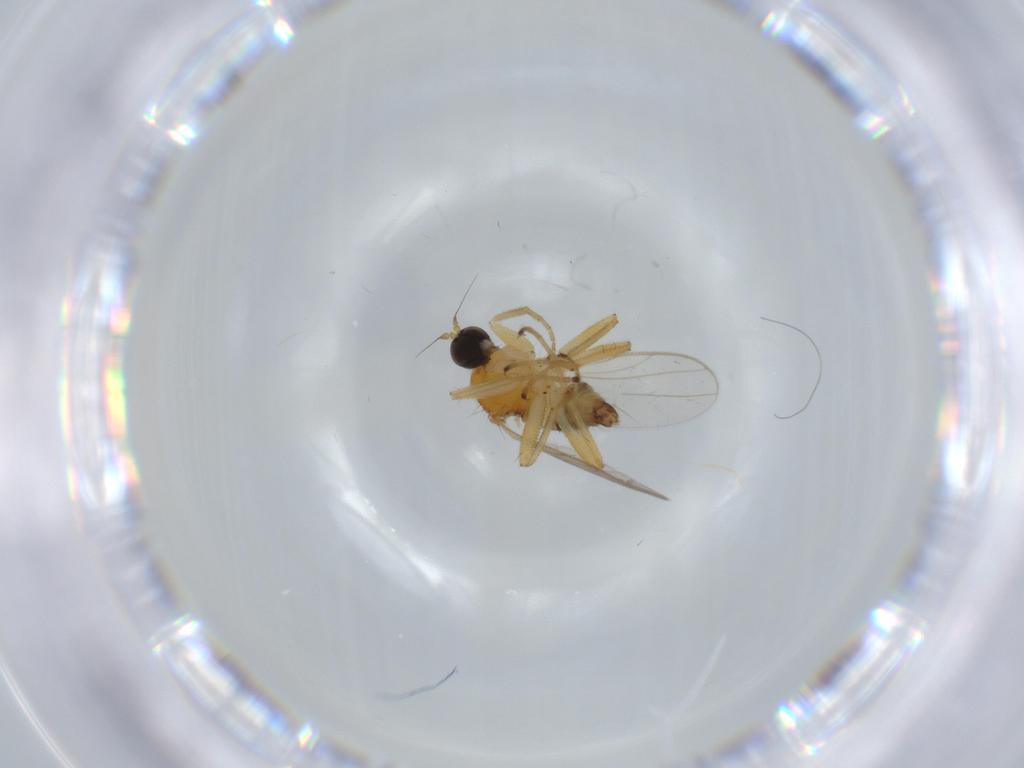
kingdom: Animalia
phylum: Arthropoda
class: Insecta
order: Diptera
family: Hybotidae
